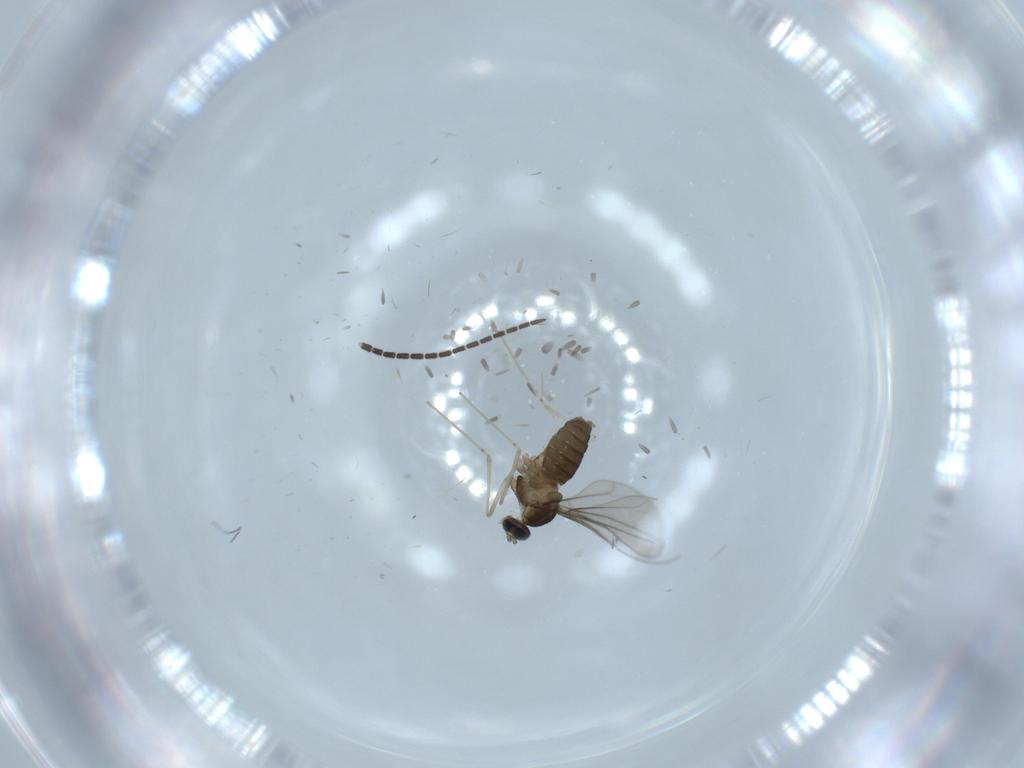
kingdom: Animalia
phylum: Arthropoda
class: Insecta
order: Diptera
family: Cecidomyiidae
